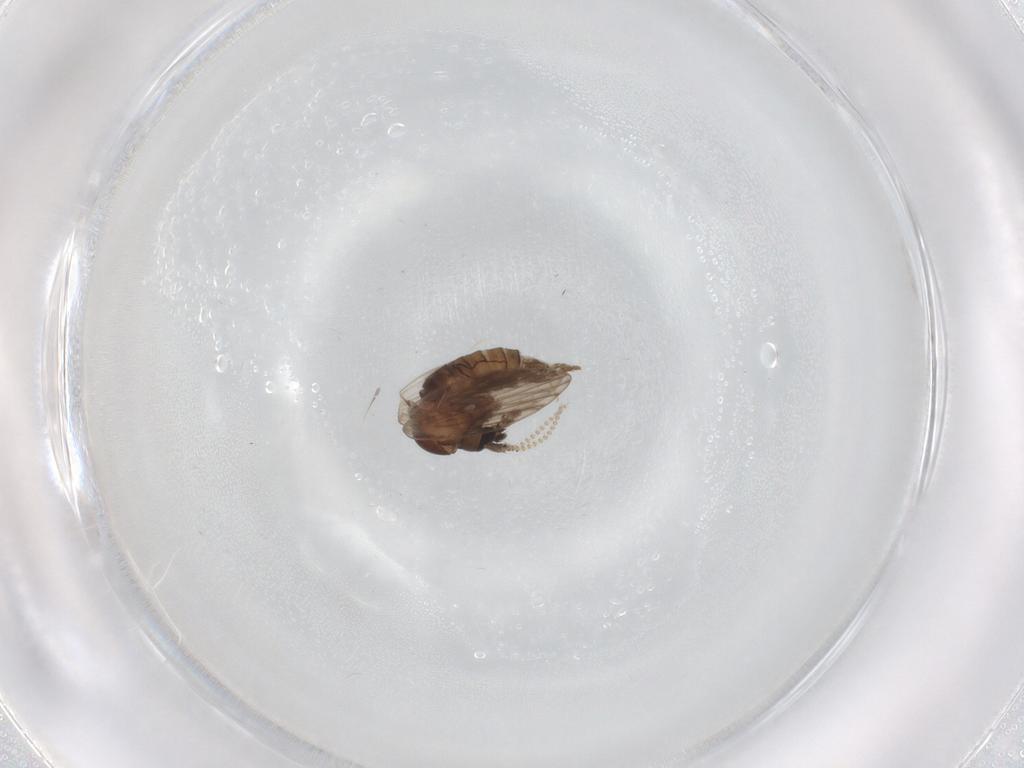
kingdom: Animalia
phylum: Arthropoda
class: Insecta
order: Diptera
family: Psychodidae
